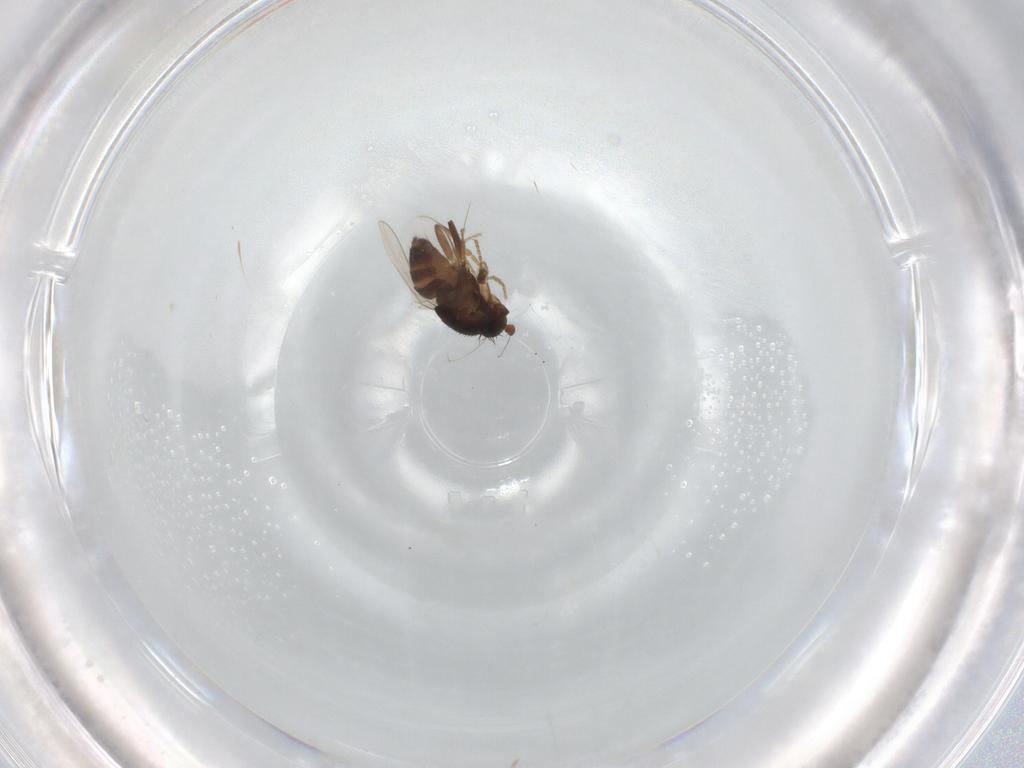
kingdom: Animalia
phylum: Arthropoda
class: Insecta
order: Diptera
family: Sphaeroceridae
